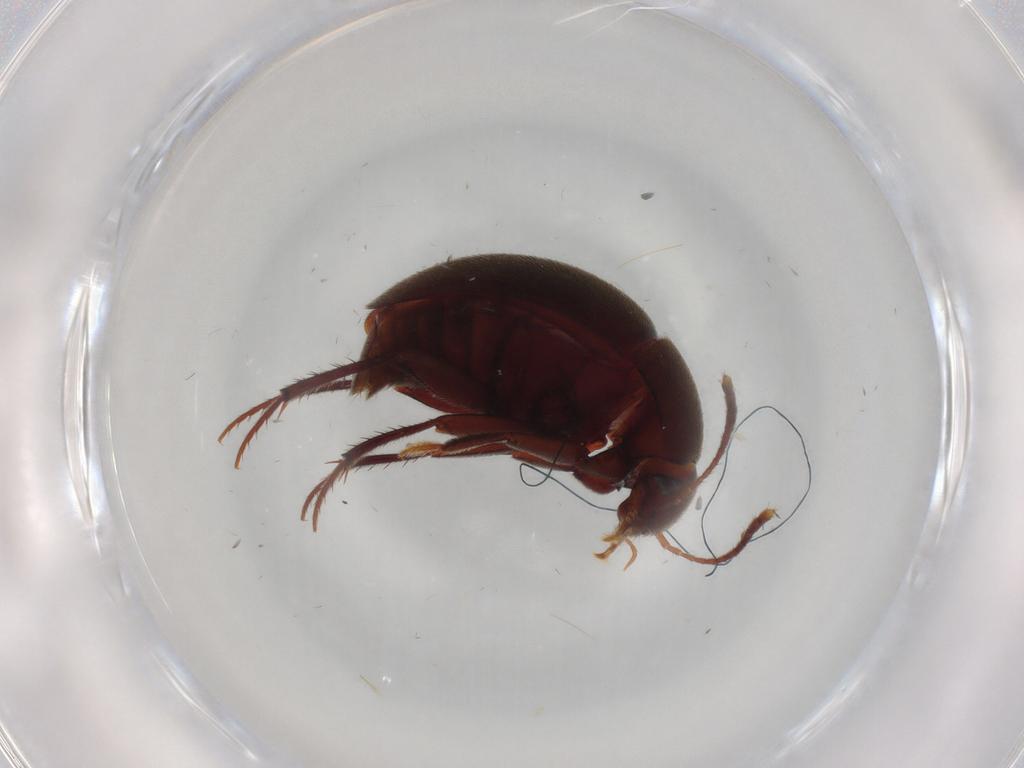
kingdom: Animalia
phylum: Arthropoda
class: Insecta
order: Coleoptera
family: Leiodidae
